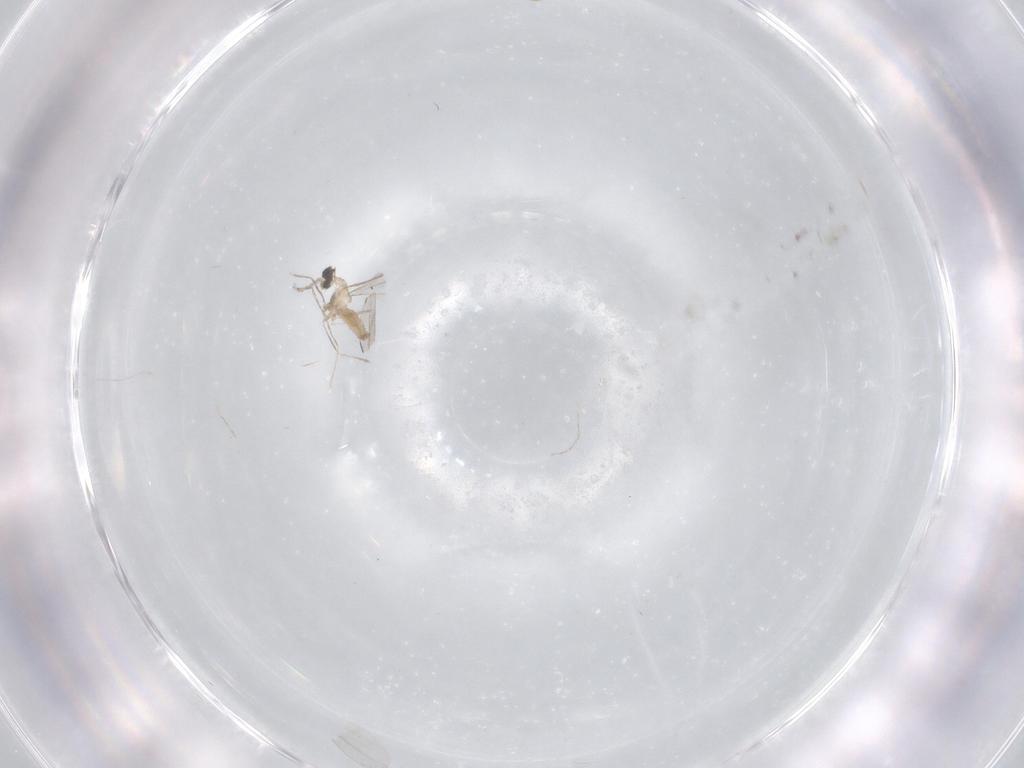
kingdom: Animalia
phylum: Arthropoda
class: Insecta
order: Diptera
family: Cecidomyiidae
